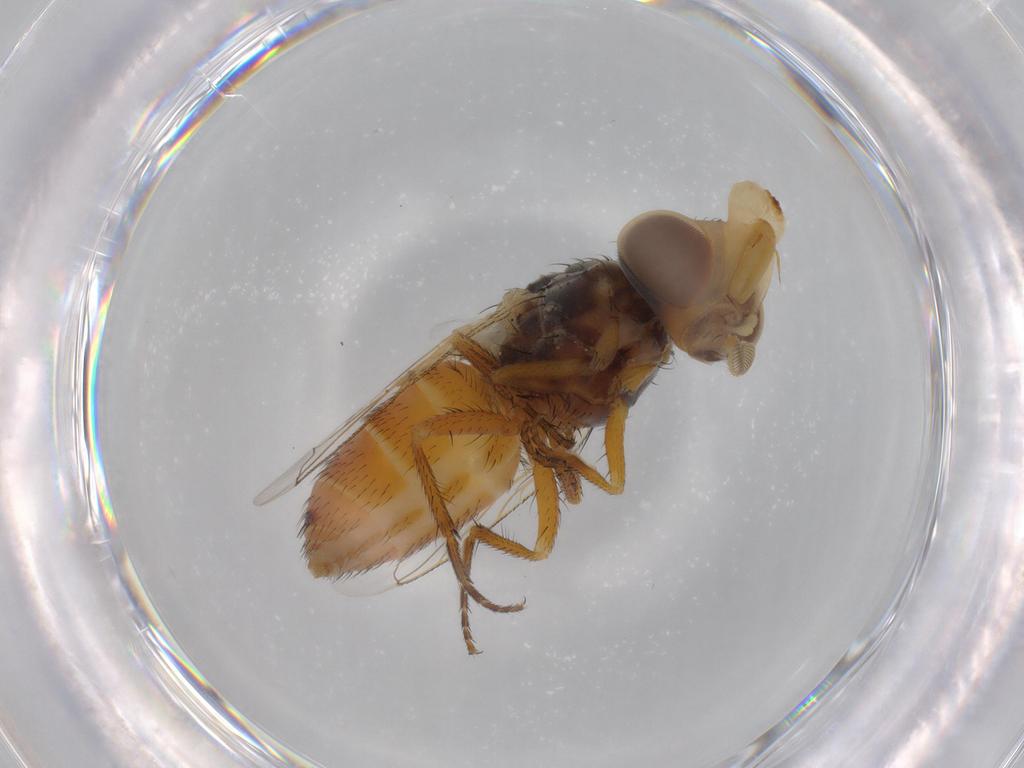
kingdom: Animalia
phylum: Arthropoda
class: Insecta
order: Diptera
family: Sarcophagidae
